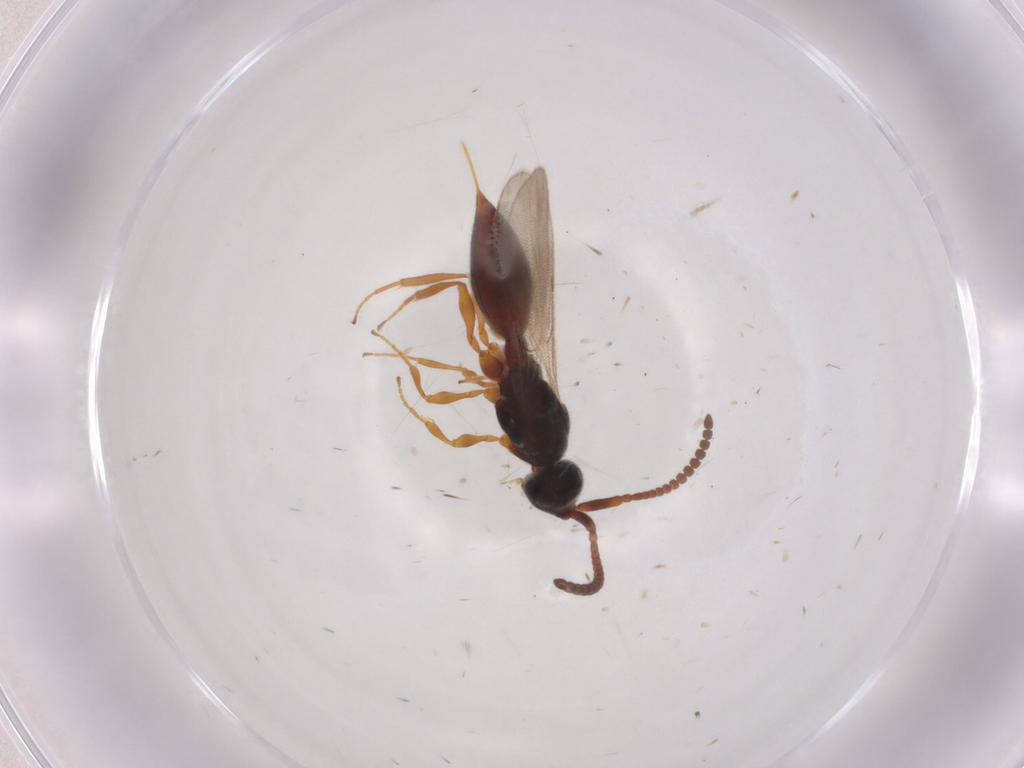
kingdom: Animalia
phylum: Arthropoda
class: Insecta
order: Hymenoptera
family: Diapriidae
